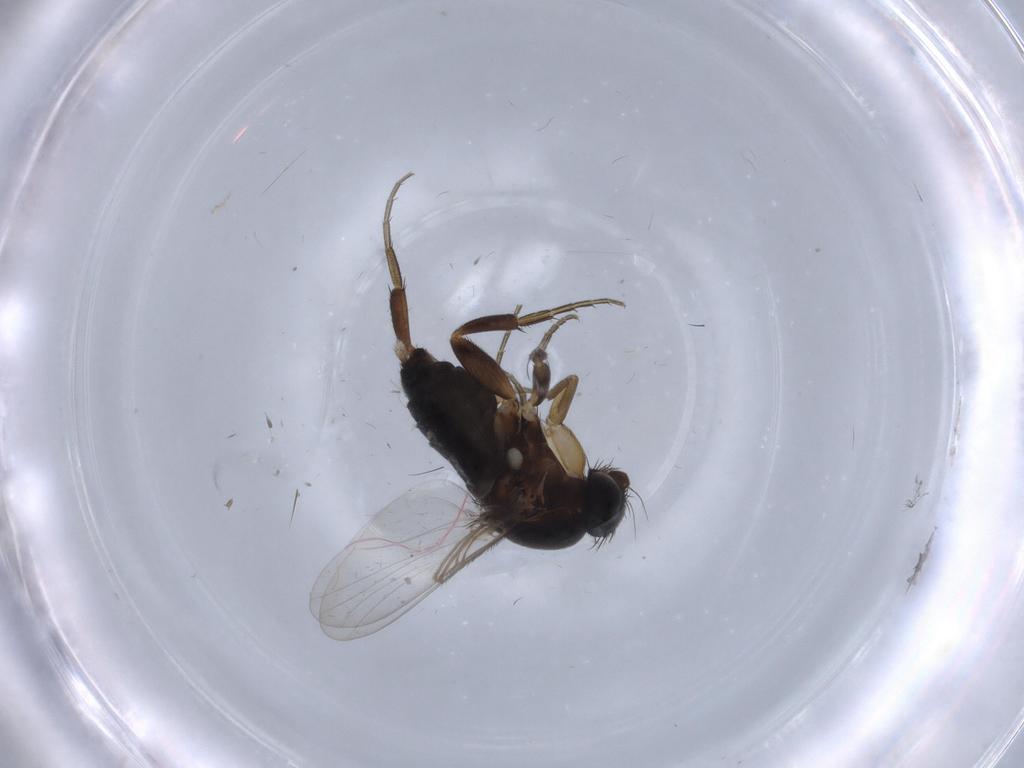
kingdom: Animalia
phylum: Arthropoda
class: Insecta
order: Diptera
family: Phoridae
